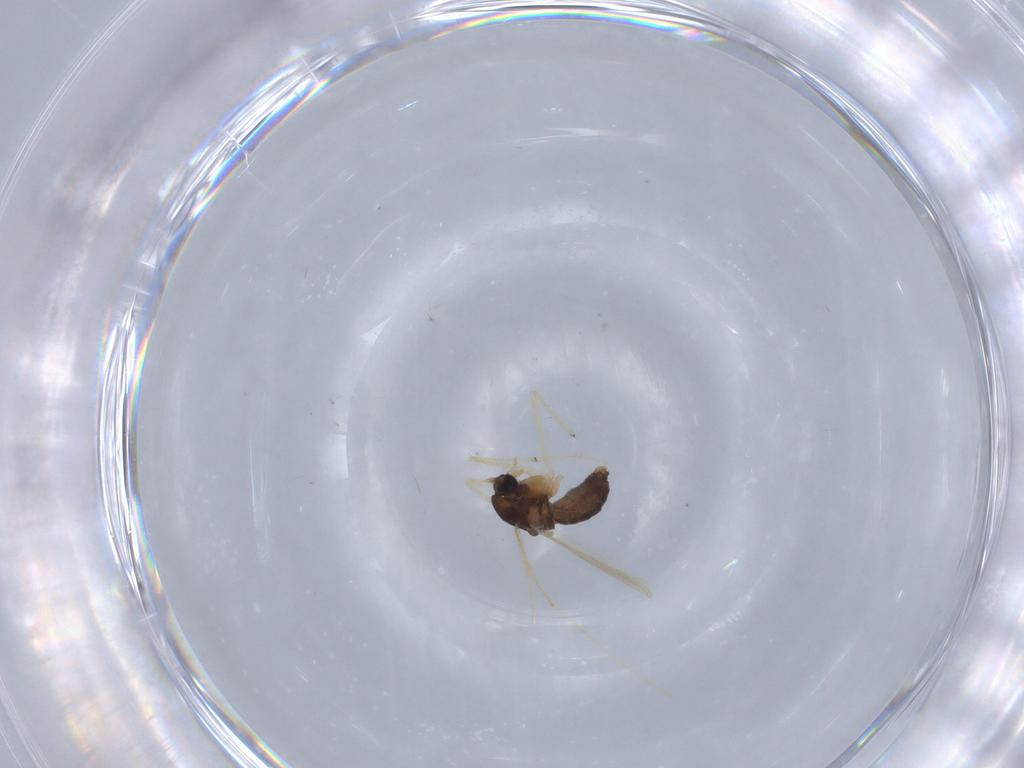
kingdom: Animalia
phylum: Arthropoda
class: Insecta
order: Diptera
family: Chironomidae
